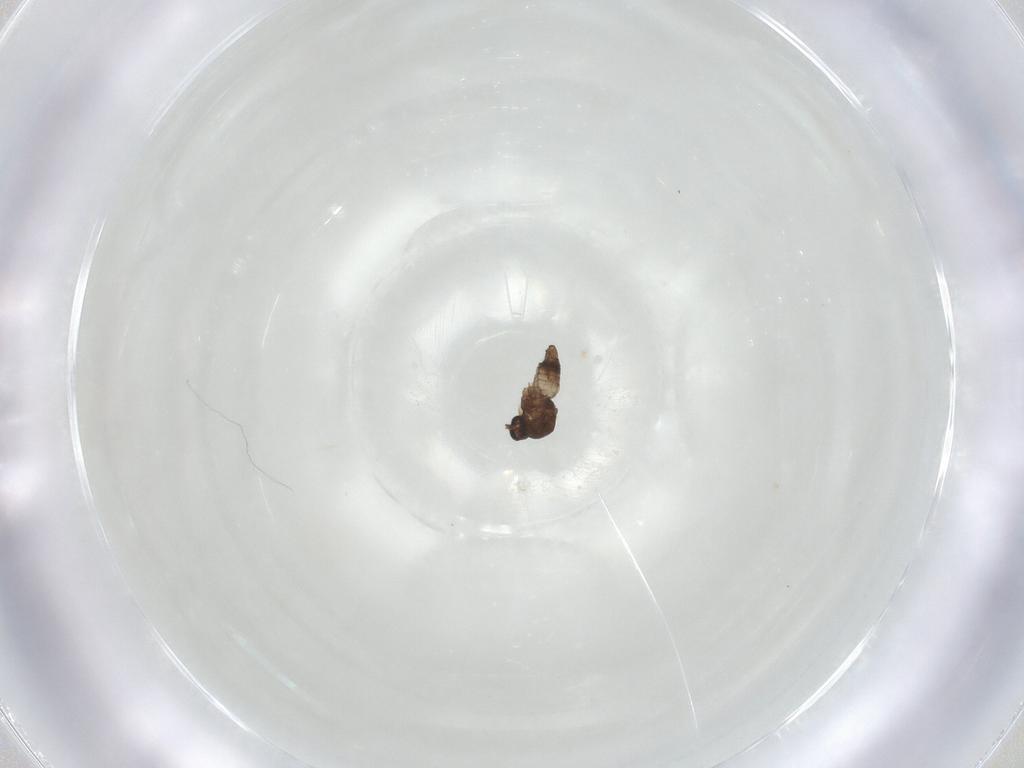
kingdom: Animalia
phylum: Arthropoda
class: Insecta
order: Diptera
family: Ceratopogonidae
